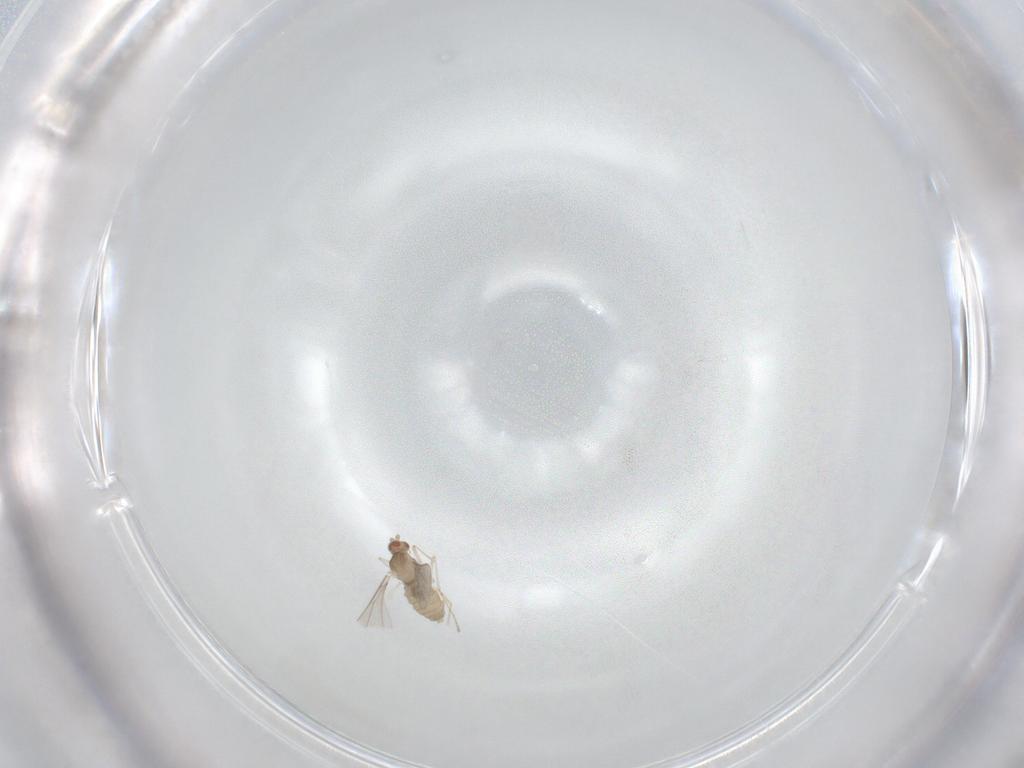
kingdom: Animalia
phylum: Arthropoda
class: Insecta
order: Diptera
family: Cecidomyiidae
